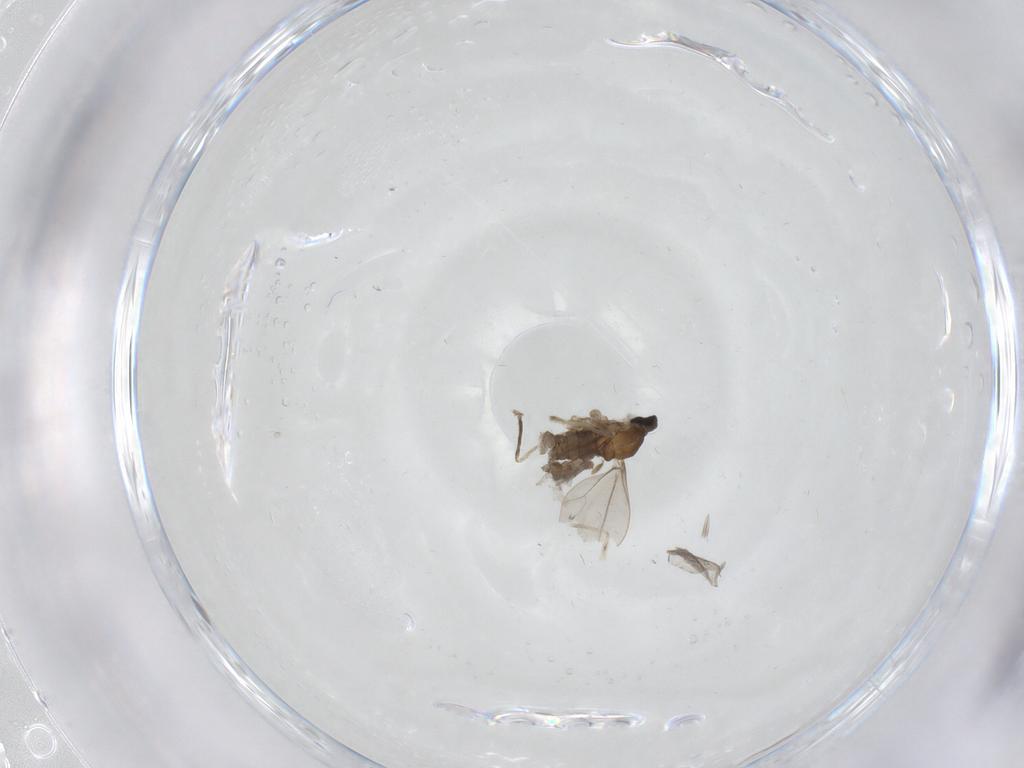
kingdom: Animalia
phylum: Arthropoda
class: Insecta
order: Diptera
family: Cecidomyiidae
